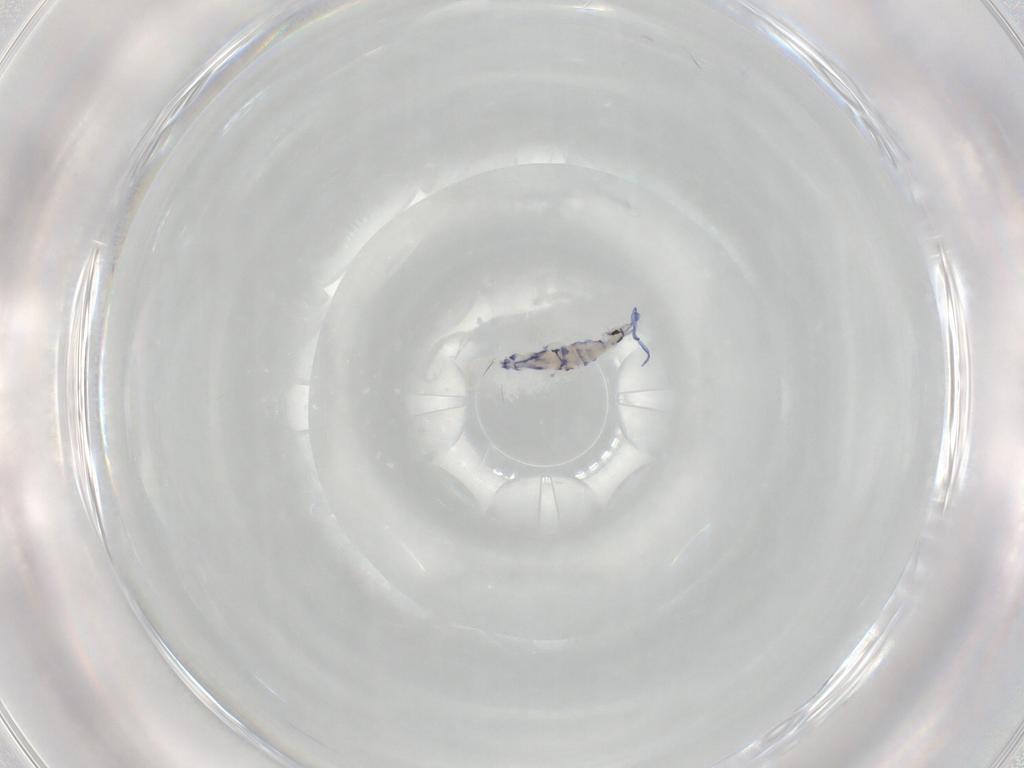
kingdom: Animalia
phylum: Arthropoda
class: Collembola
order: Entomobryomorpha
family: Entomobryidae
